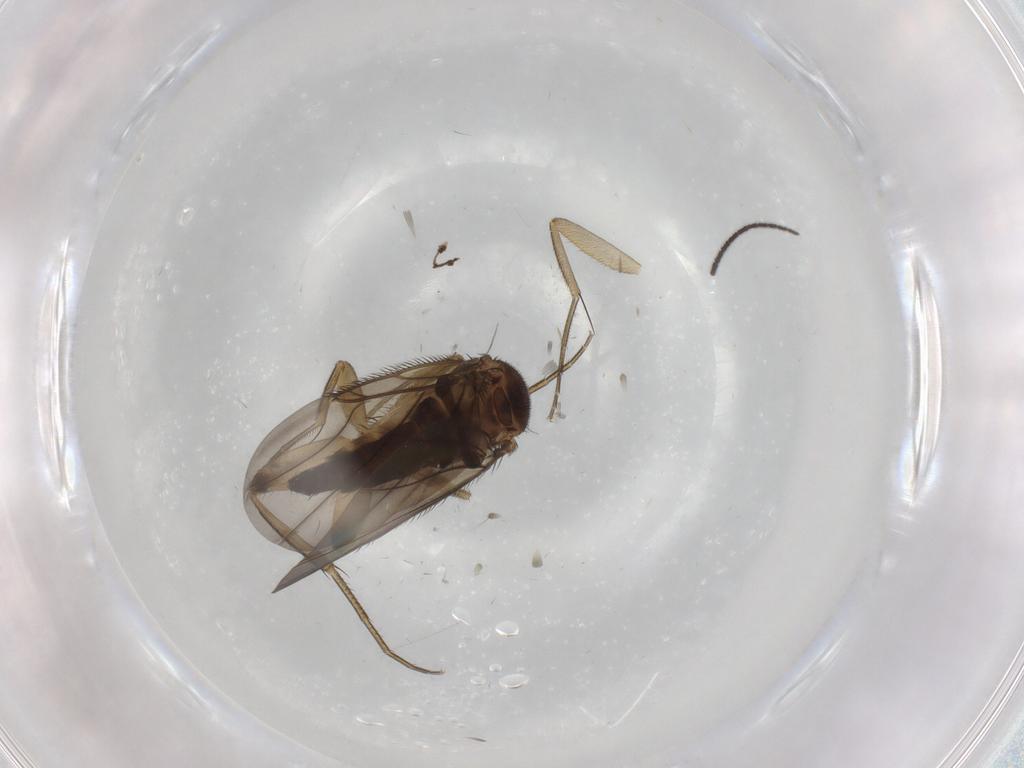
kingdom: Animalia
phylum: Arthropoda
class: Insecta
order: Diptera
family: Phoridae
